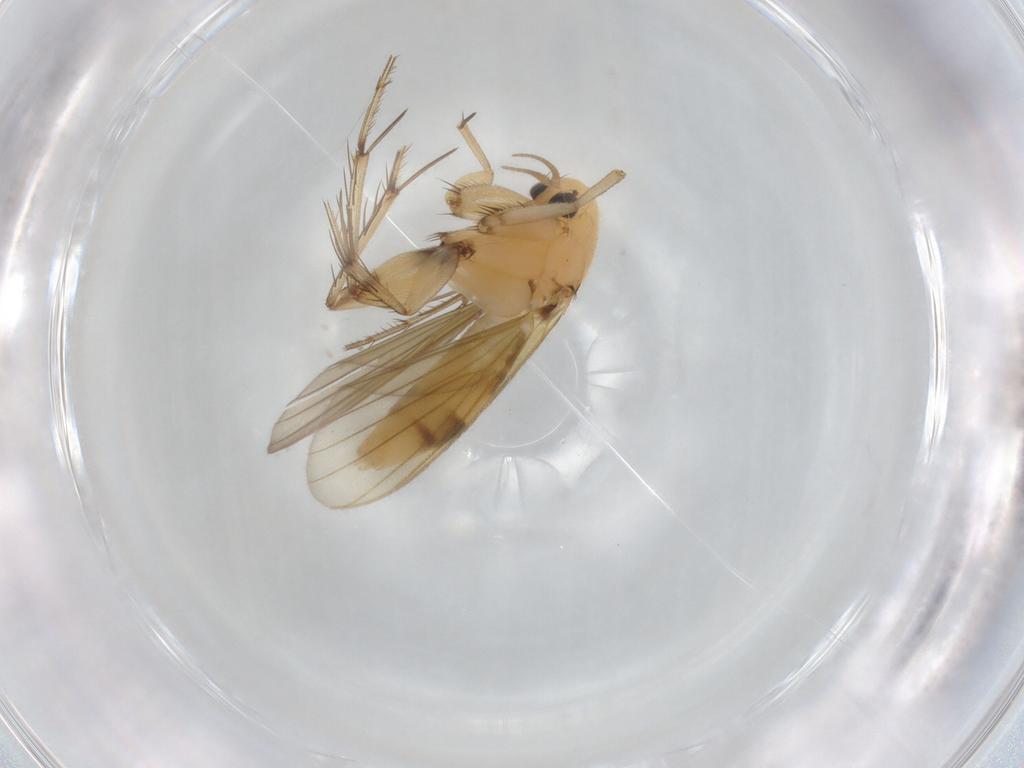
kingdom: Animalia
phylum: Arthropoda
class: Insecta
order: Diptera
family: Mycetophilidae
